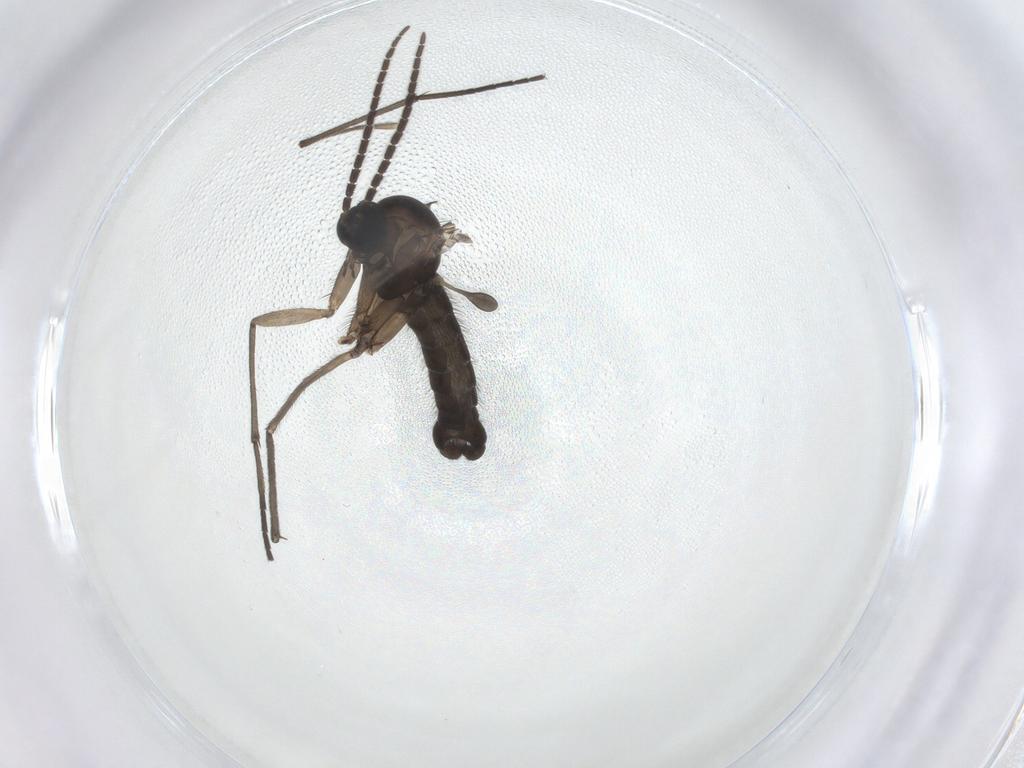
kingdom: Animalia
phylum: Arthropoda
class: Insecta
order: Diptera
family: Sciaridae
